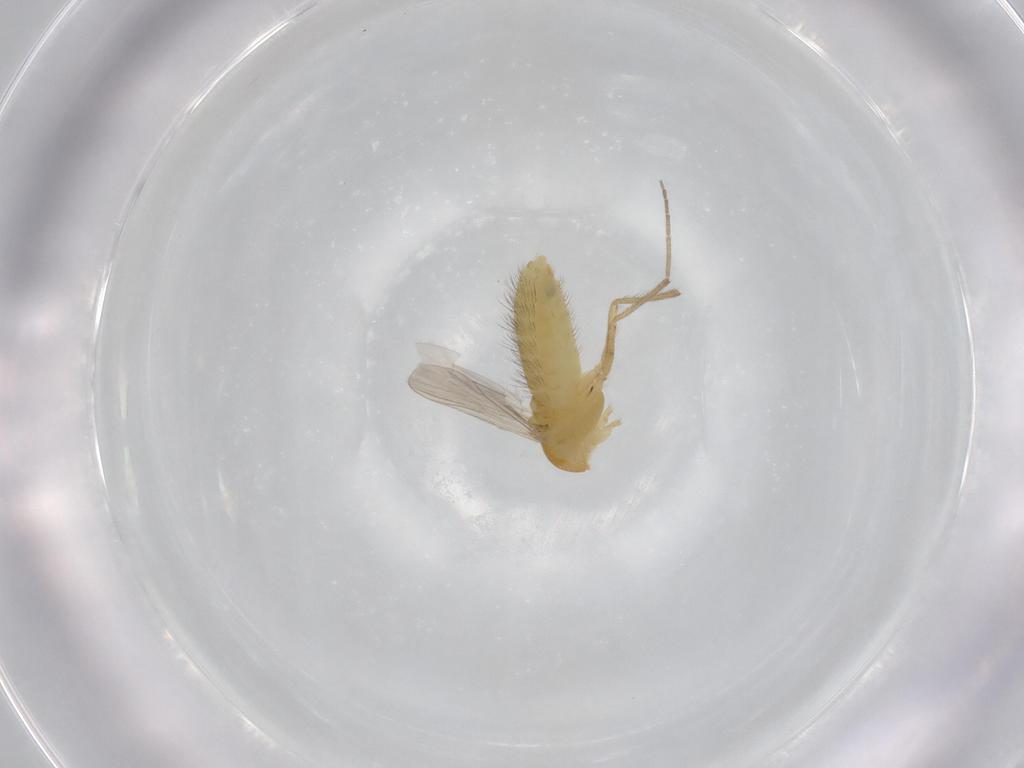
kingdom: Animalia
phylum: Arthropoda
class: Insecta
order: Diptera
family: Chironomidae
